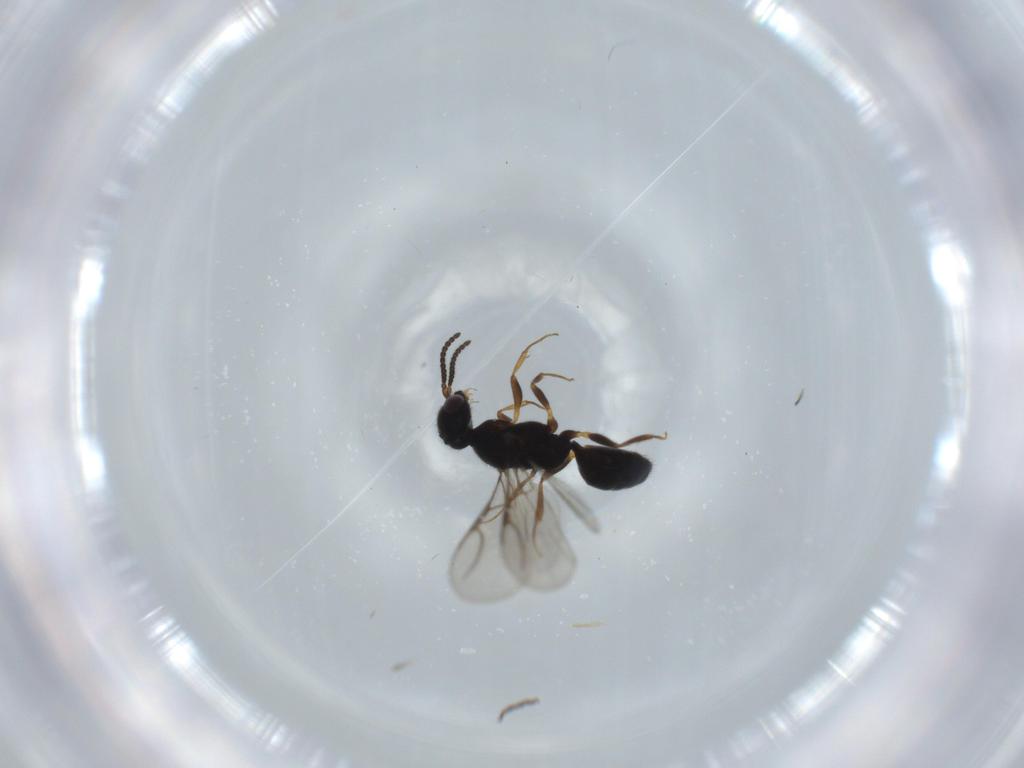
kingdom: Animalia
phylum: Arthropoda
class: Insecta
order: Hymenoptera
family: Bethylidae
